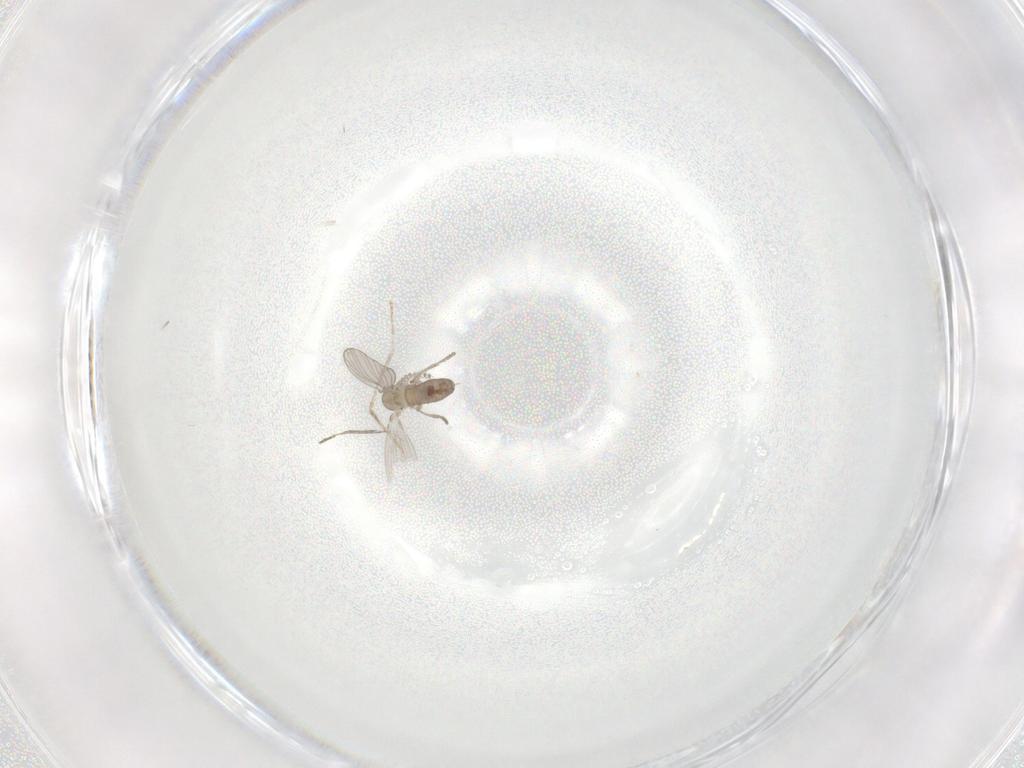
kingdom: Animalia
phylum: Arthropoda
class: Insecta
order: Diptera
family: Psychodidae
